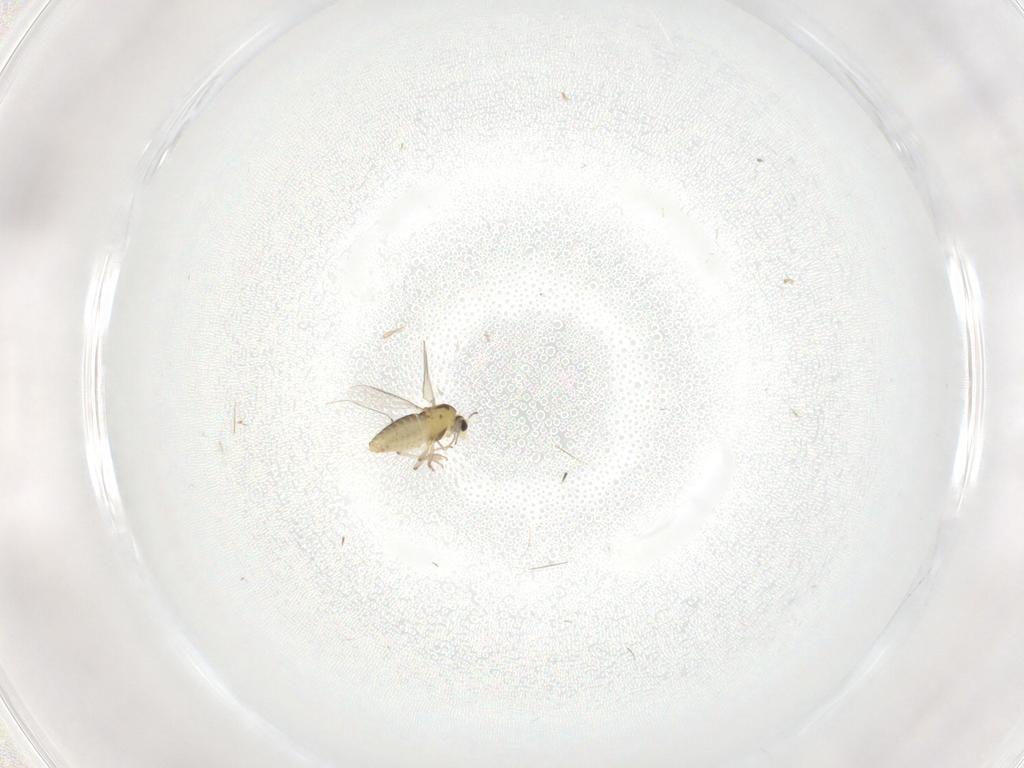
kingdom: Animalia
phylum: Arthropoda
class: Insecta
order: Diptera
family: Chironomidae
